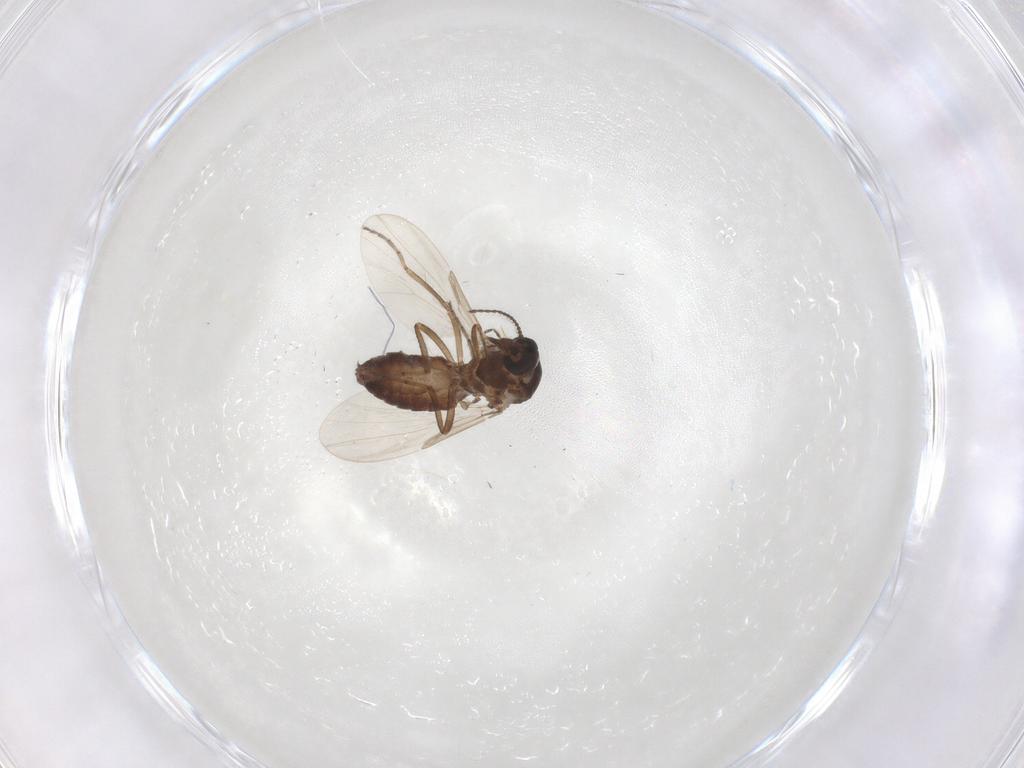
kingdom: Animalia
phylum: Arthropoda
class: Insecta
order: Diptera
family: Ceratopogonidae
